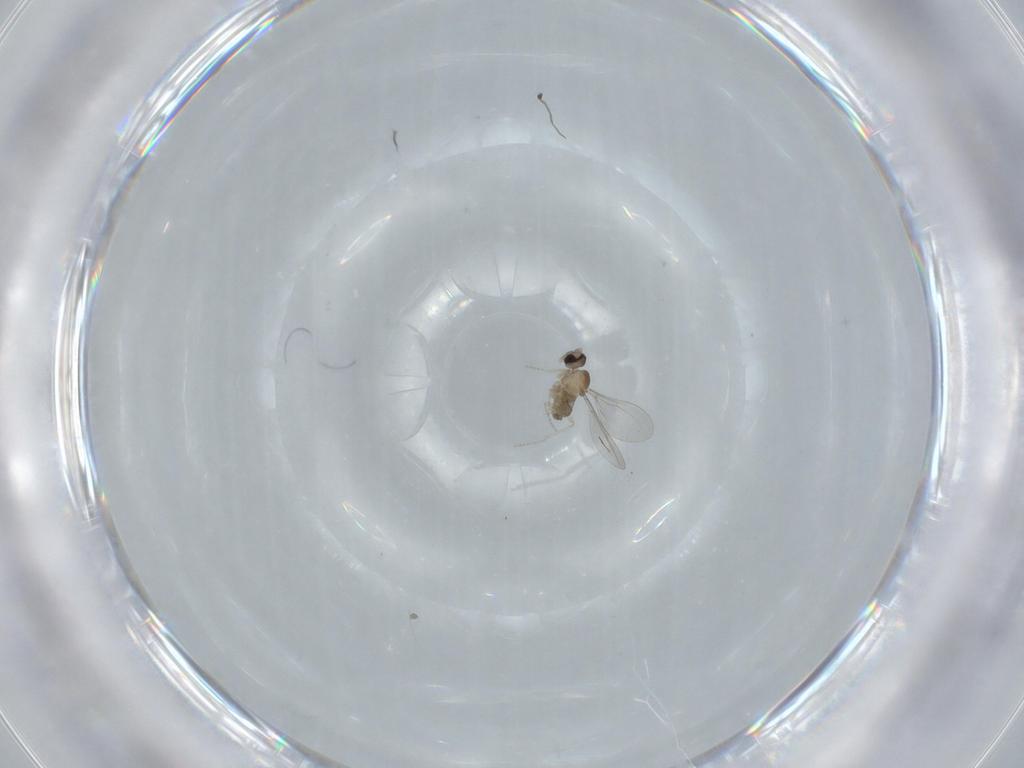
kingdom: Animalia
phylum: Arthropoda
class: Insecta
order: Diptera
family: Cecidomyiidae
